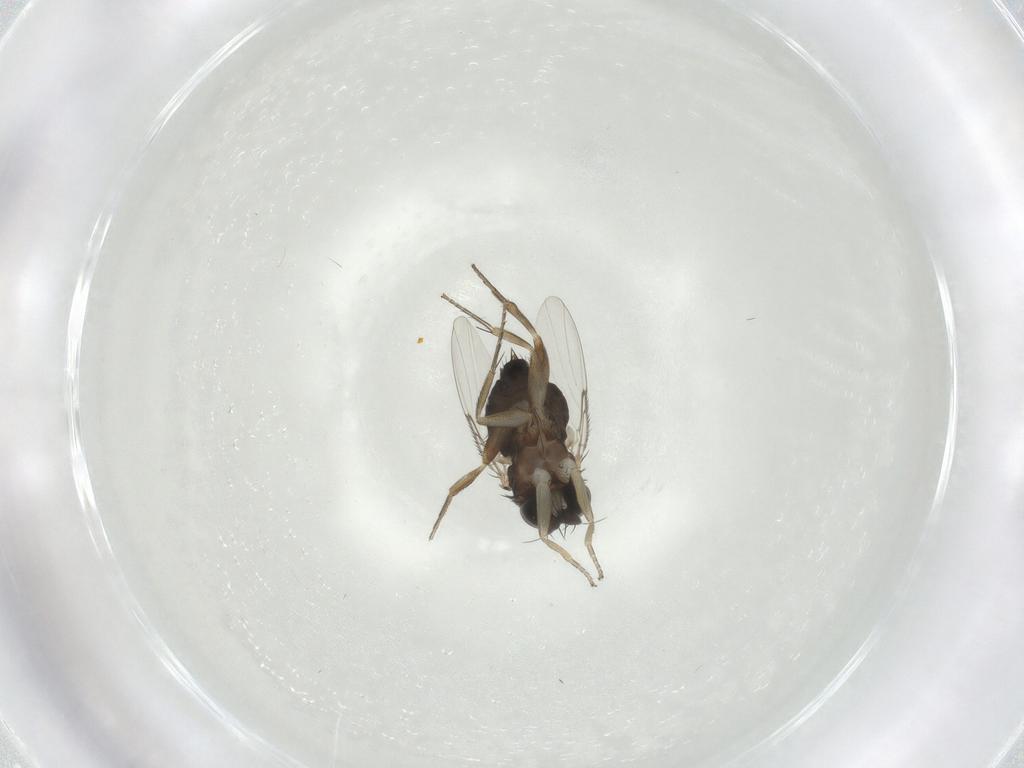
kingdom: Animalia
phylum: Arthropoda
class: Insecta
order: Diptera
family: Phoridae
